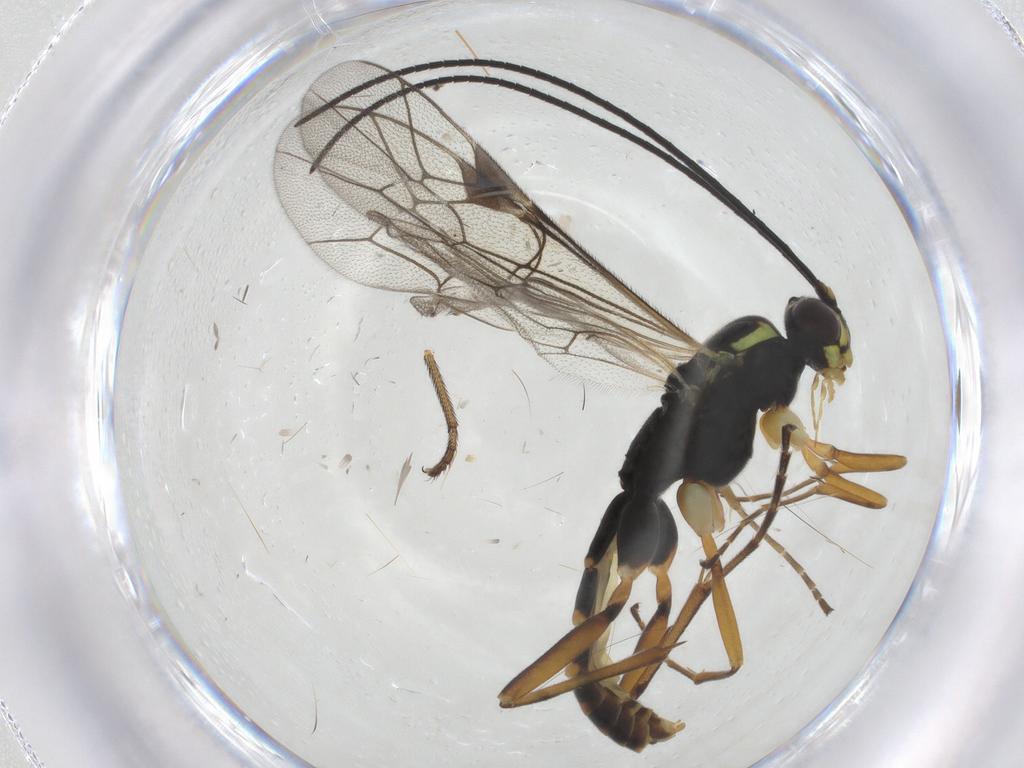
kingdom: Animalia
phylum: Arthropoda
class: Insecta
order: Hymenoptera
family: Ichneumonidae
